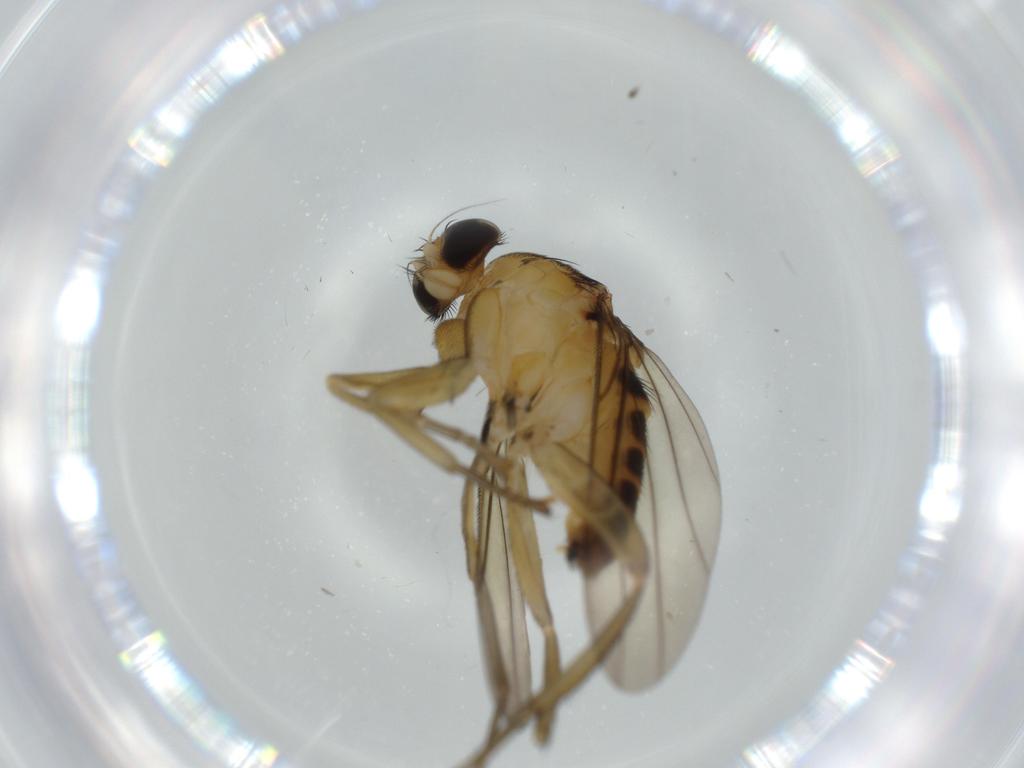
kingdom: Animalia
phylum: Arthropoda
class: Insecta
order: Diptera
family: Phoridae
